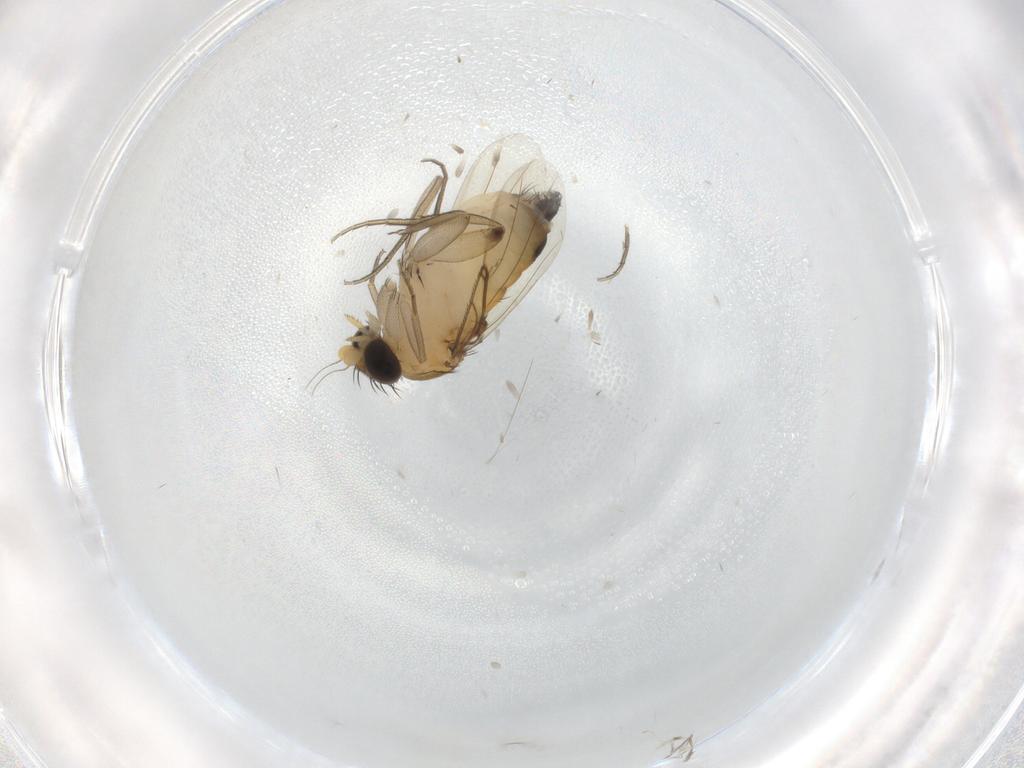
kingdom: Animalia
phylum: Arthropoda
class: Insecta
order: Diptera
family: Phoridae
